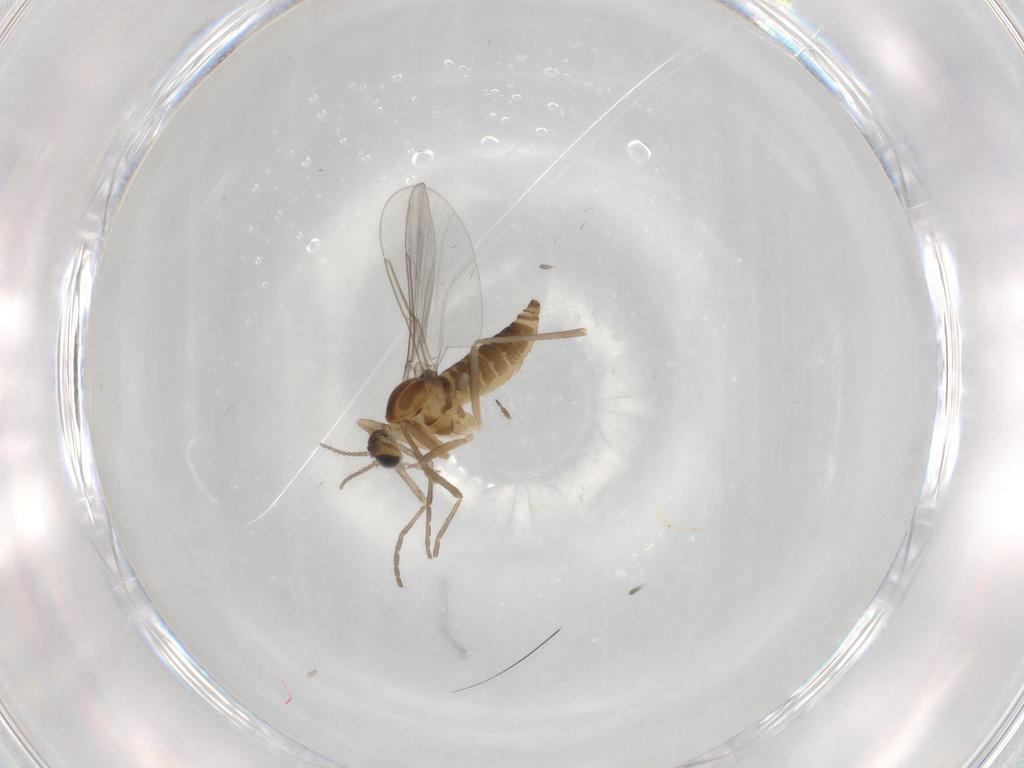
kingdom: Animalia
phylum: Arthropoda
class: Insecta
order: Diptera
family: Cecidomyiidae
